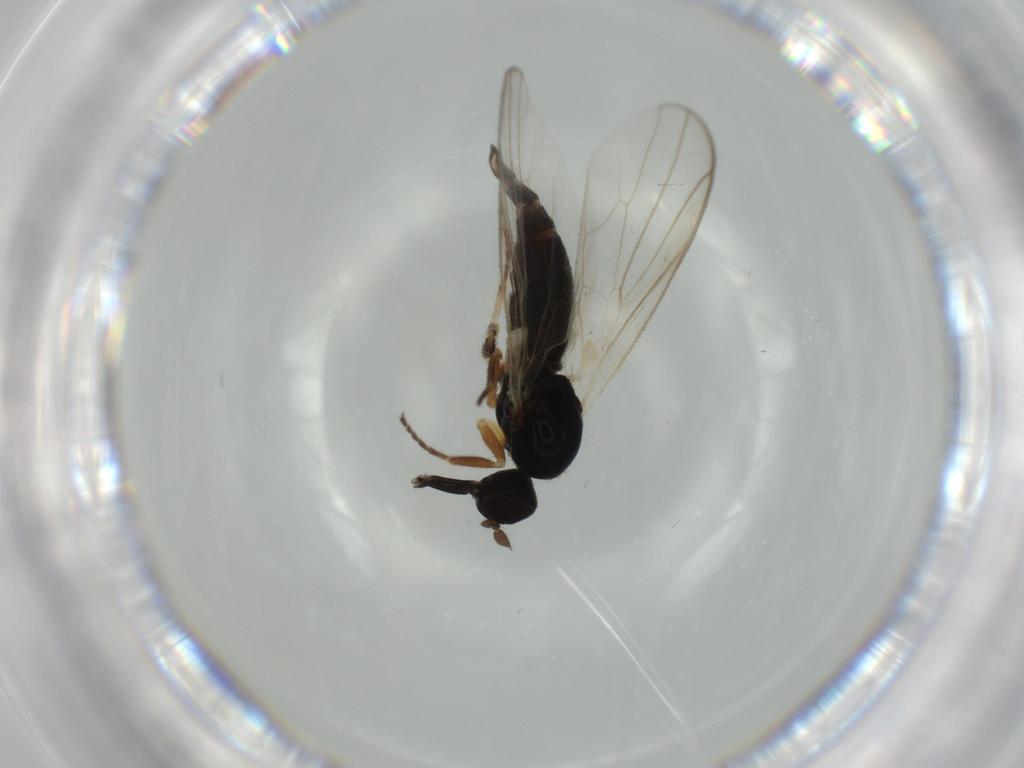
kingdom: Animalia
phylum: Arthropoda
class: Insecta
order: Diptera
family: Hybotidae
